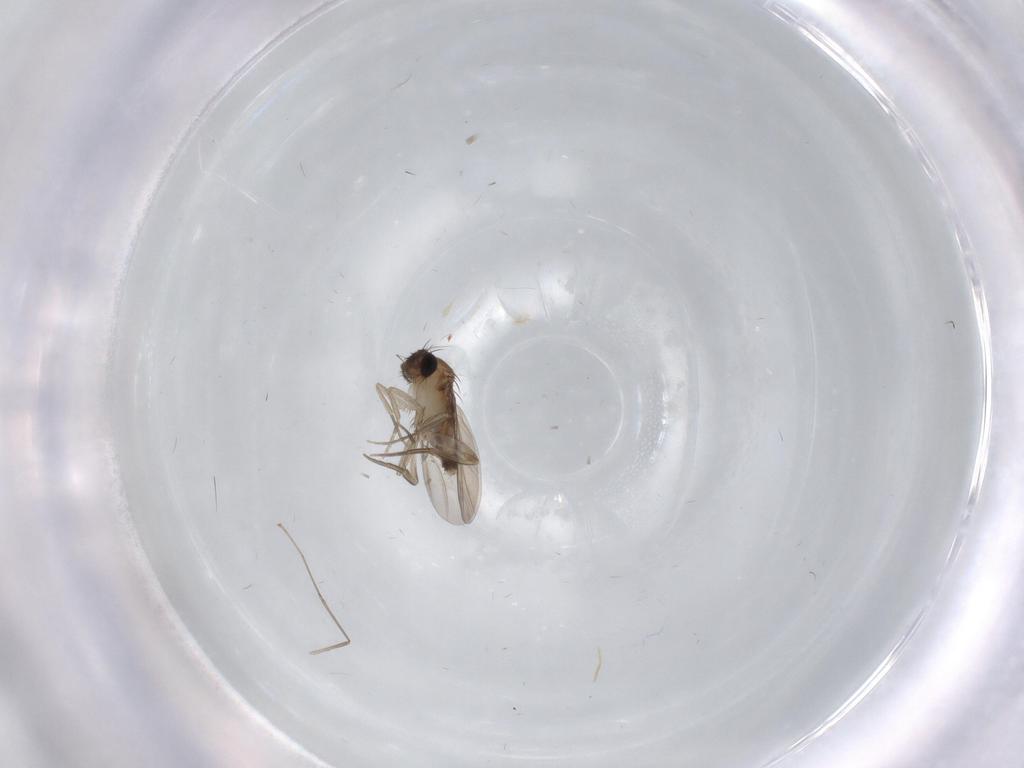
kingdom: Animalia
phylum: Arthropoda
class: Insecta
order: Diptera
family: Phoridae
